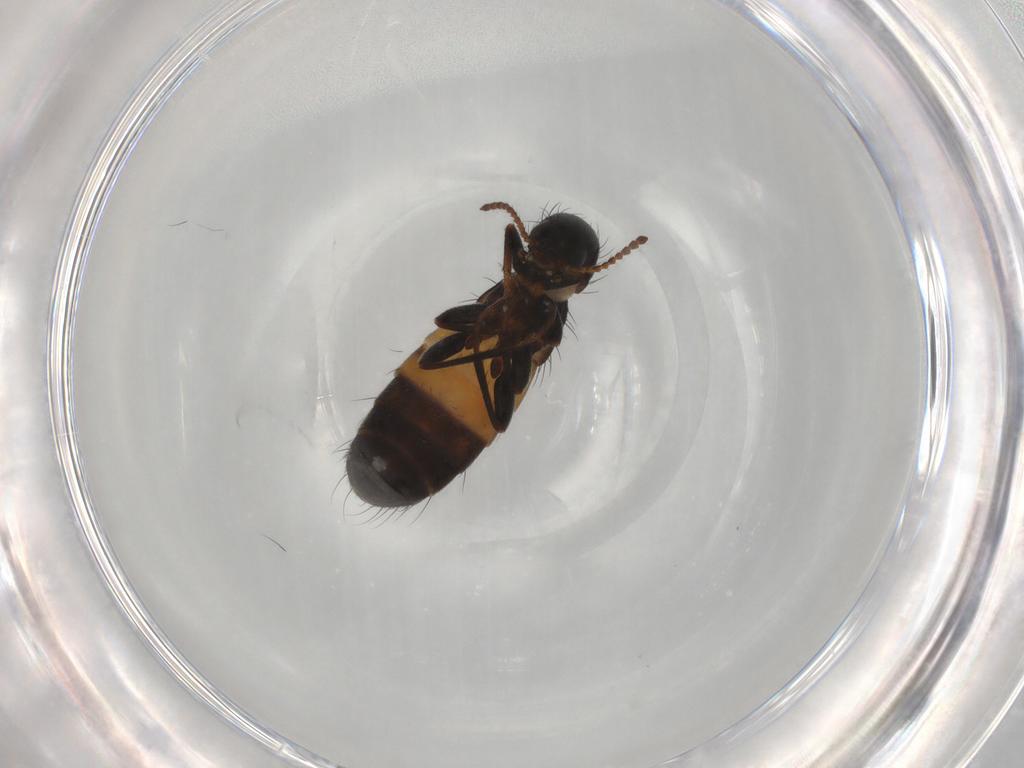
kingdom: Animalia
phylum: Arthropoda
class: Insecta
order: Coleoptera
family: Melyridae
